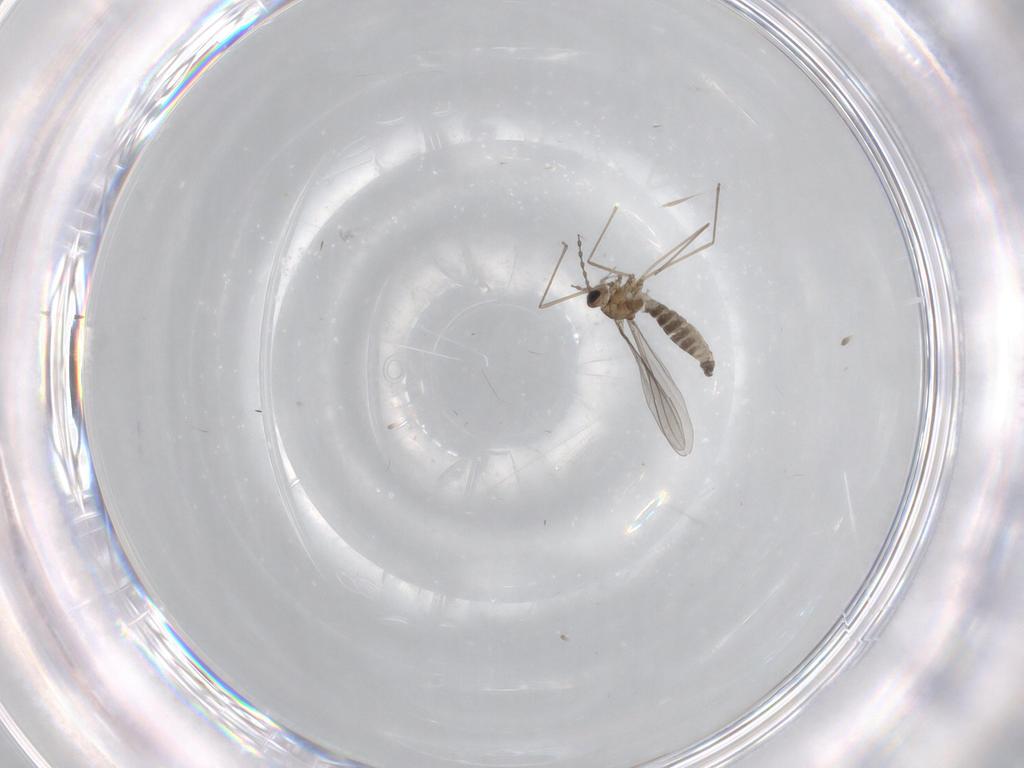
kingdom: Animalia
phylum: Arthropoda
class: Insecta
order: Diptera
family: Cecidomyiidae
